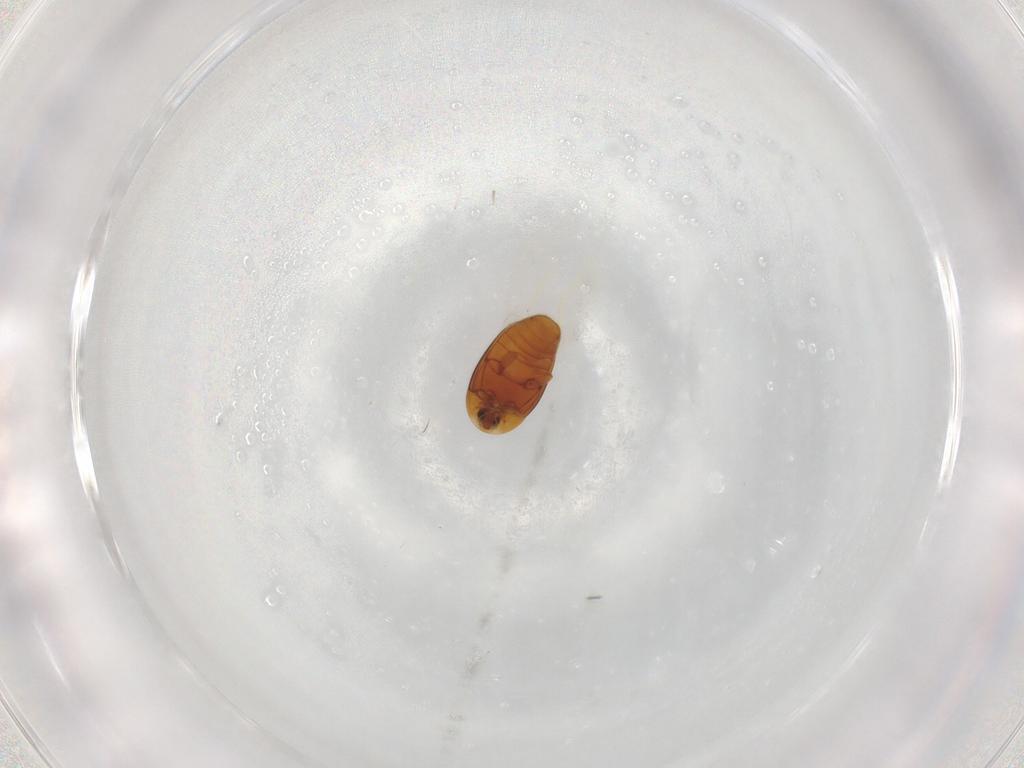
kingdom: Animalia
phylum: Arthropoda
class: Insecta
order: Coleoptera
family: Corylophidae
